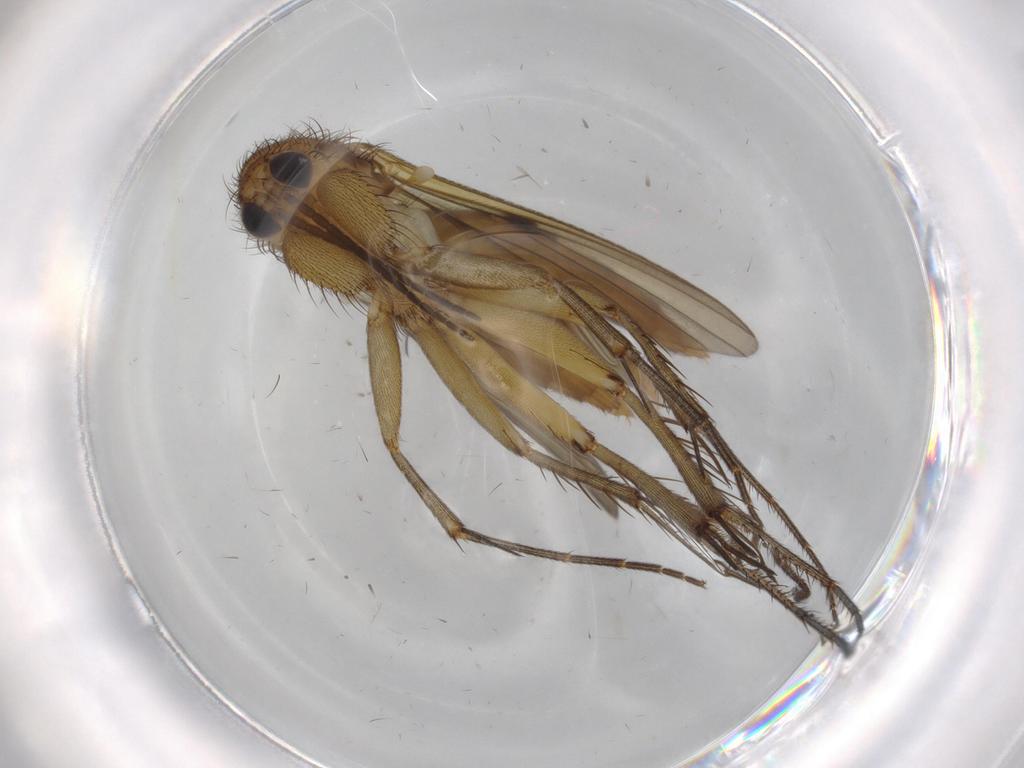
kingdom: Animalia
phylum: Arthropoda
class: Insecta
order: Diptera
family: Mycetophilidae
